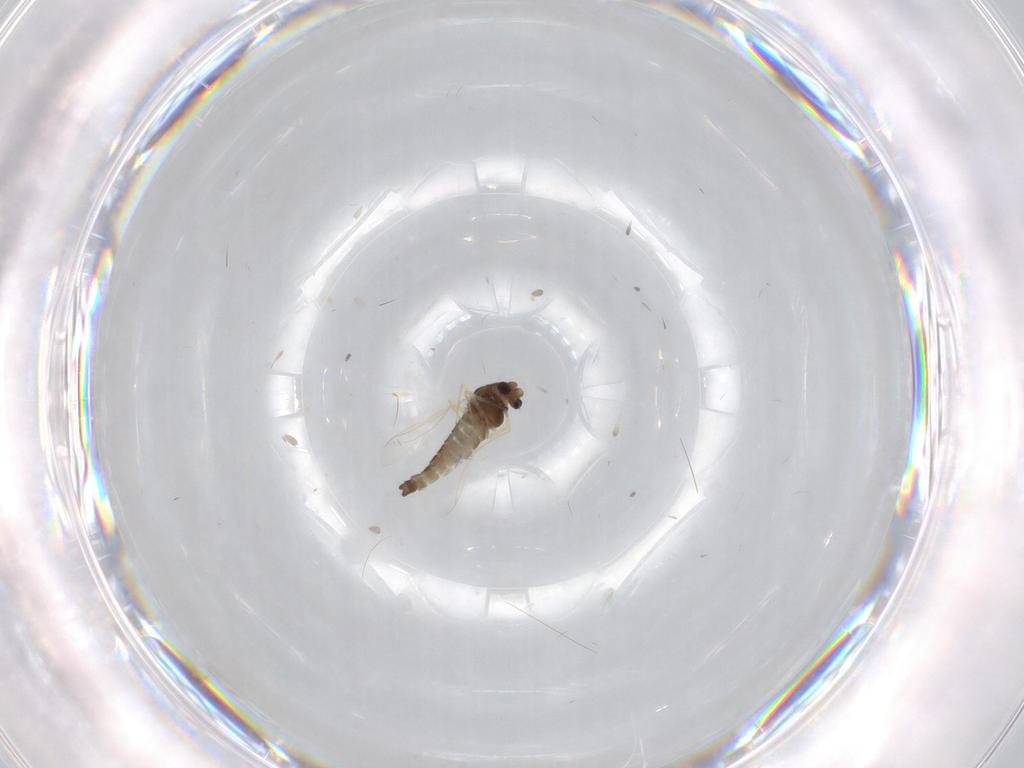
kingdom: Animalia
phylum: Arthropoda
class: Insecta
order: Diptera
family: Chironomidae
